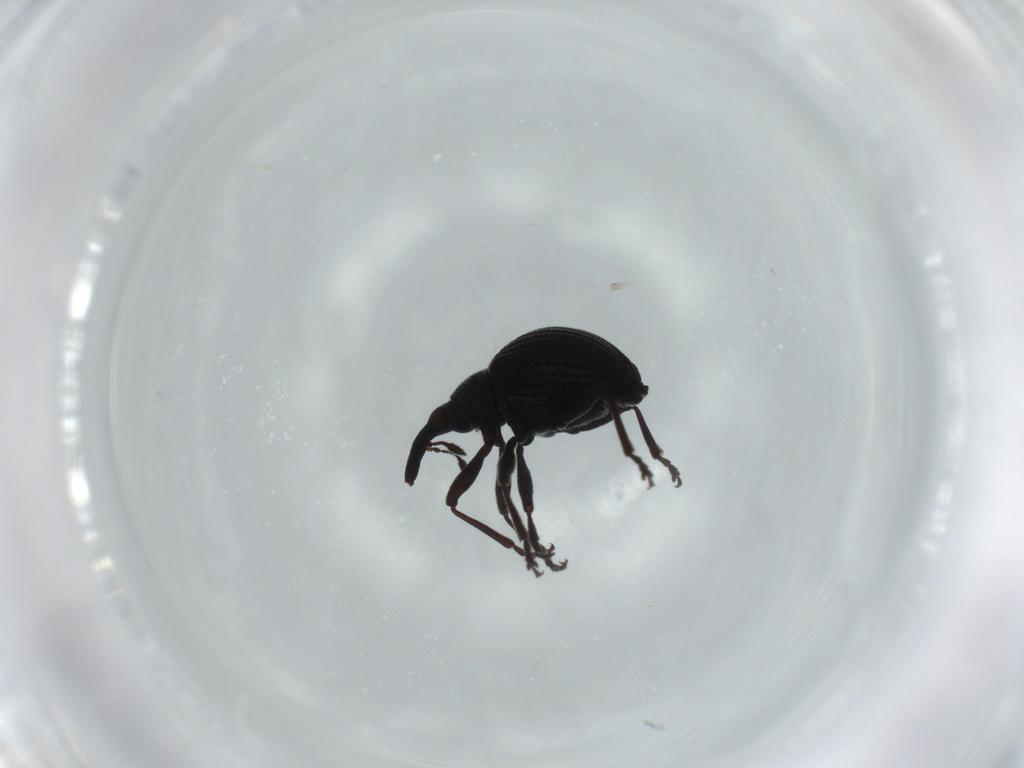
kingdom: Animalia
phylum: Arthropoda
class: Insecta
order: Coleoptera
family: Brentidae
